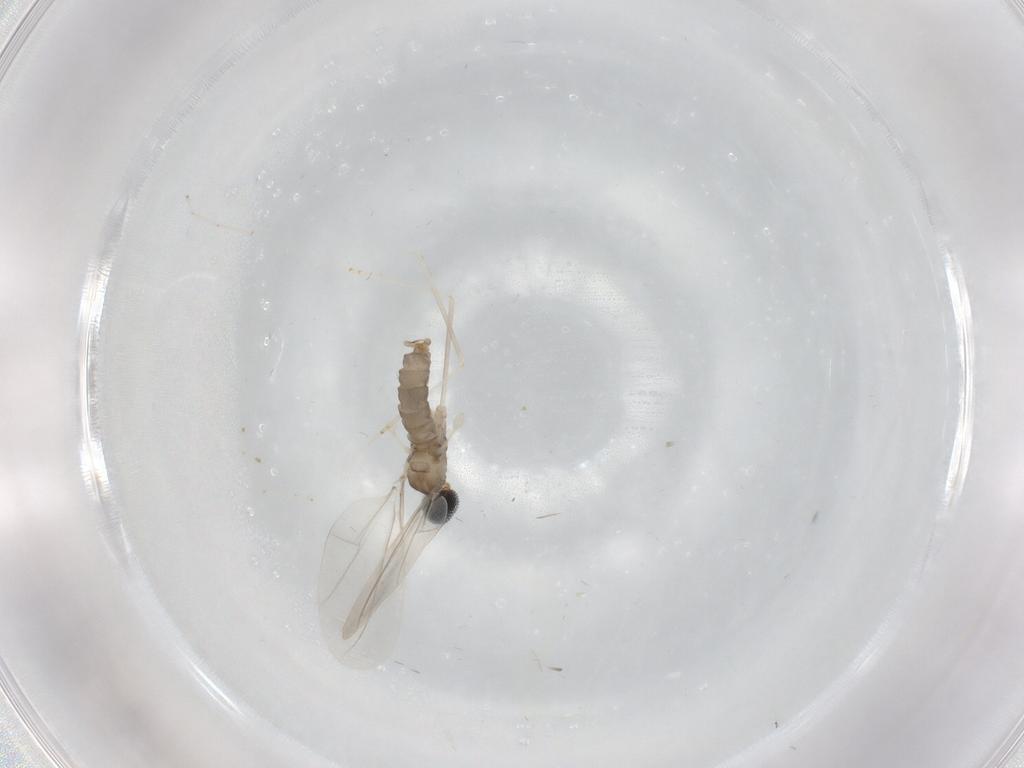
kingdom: Animalia
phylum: Arthropoda
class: Insecta
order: Diptera
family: Cecidomyiidae
